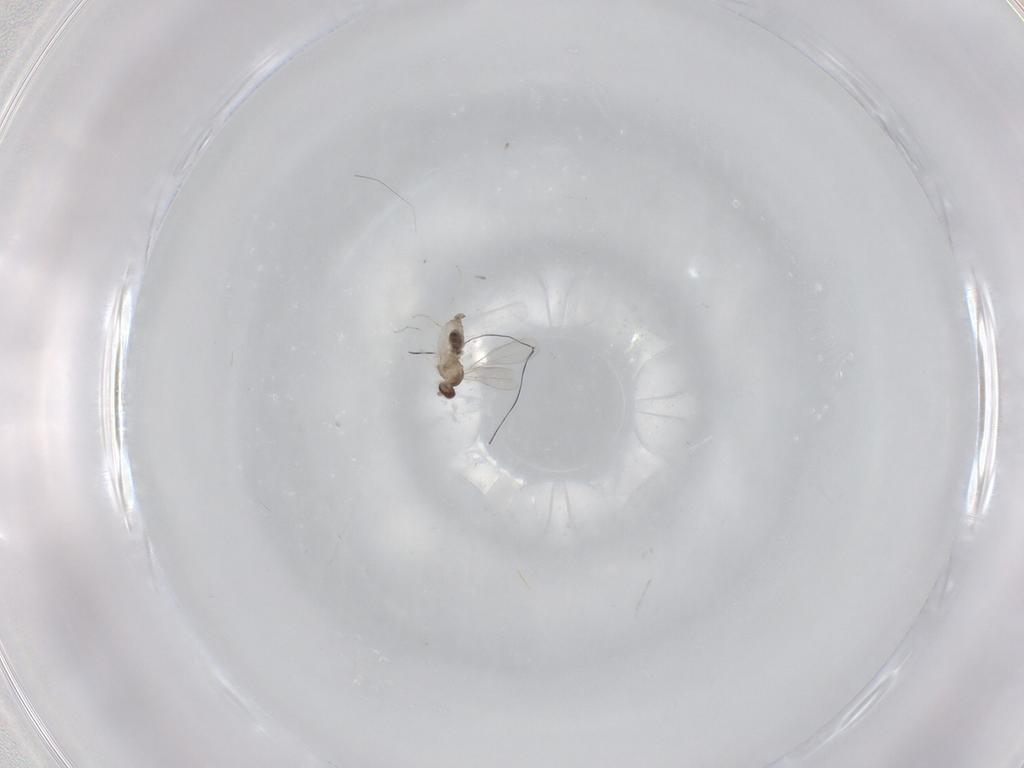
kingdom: Animalia
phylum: Arthropoda
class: Insecta
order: Diptera
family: Cecidomyiidae
